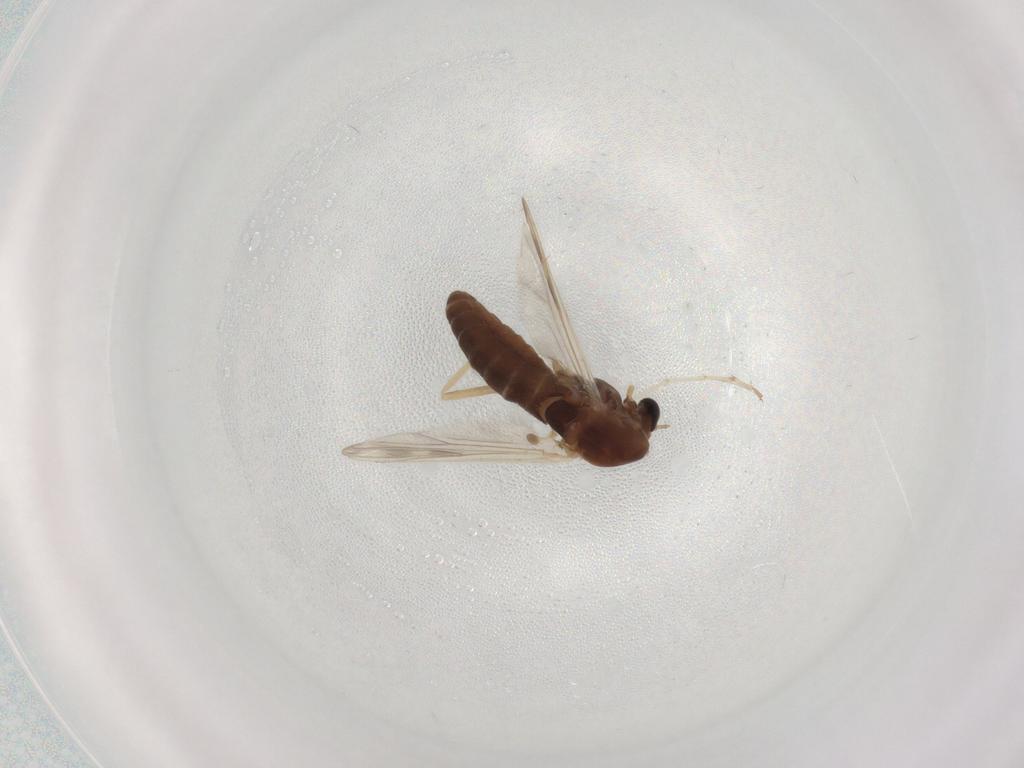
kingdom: Animalia
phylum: Arthropoda
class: Insecta
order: Diptera
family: Chironomidae
